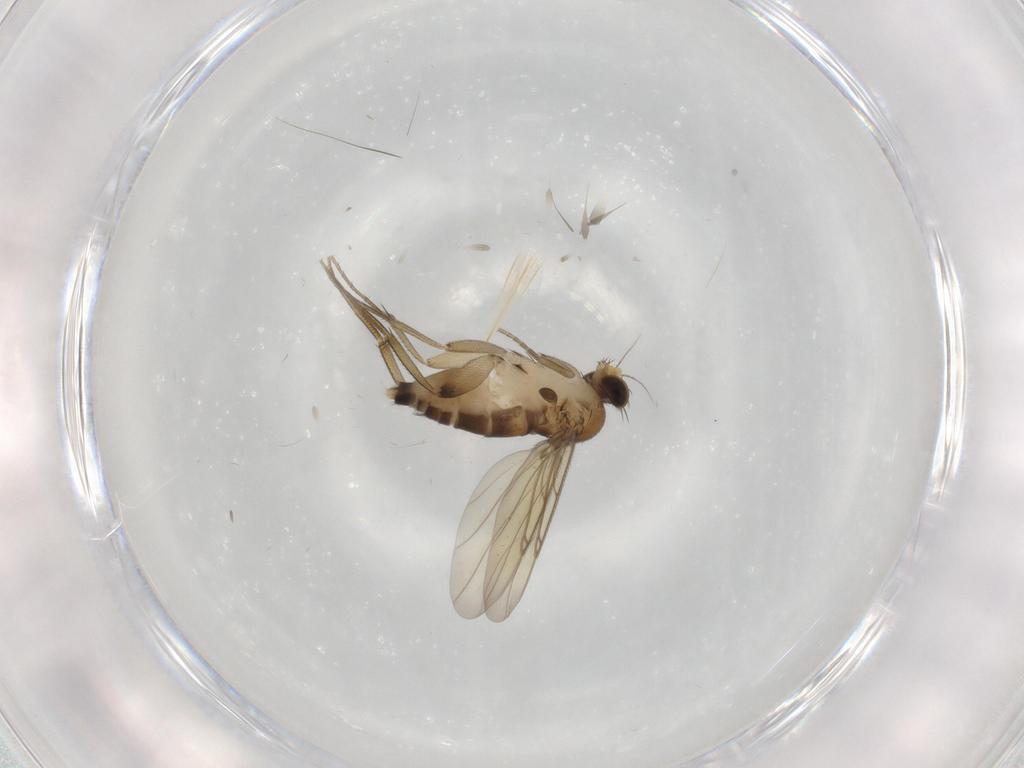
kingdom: Animalia
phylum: Arthropoda
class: Insecta
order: Diptera
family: Phoridae
